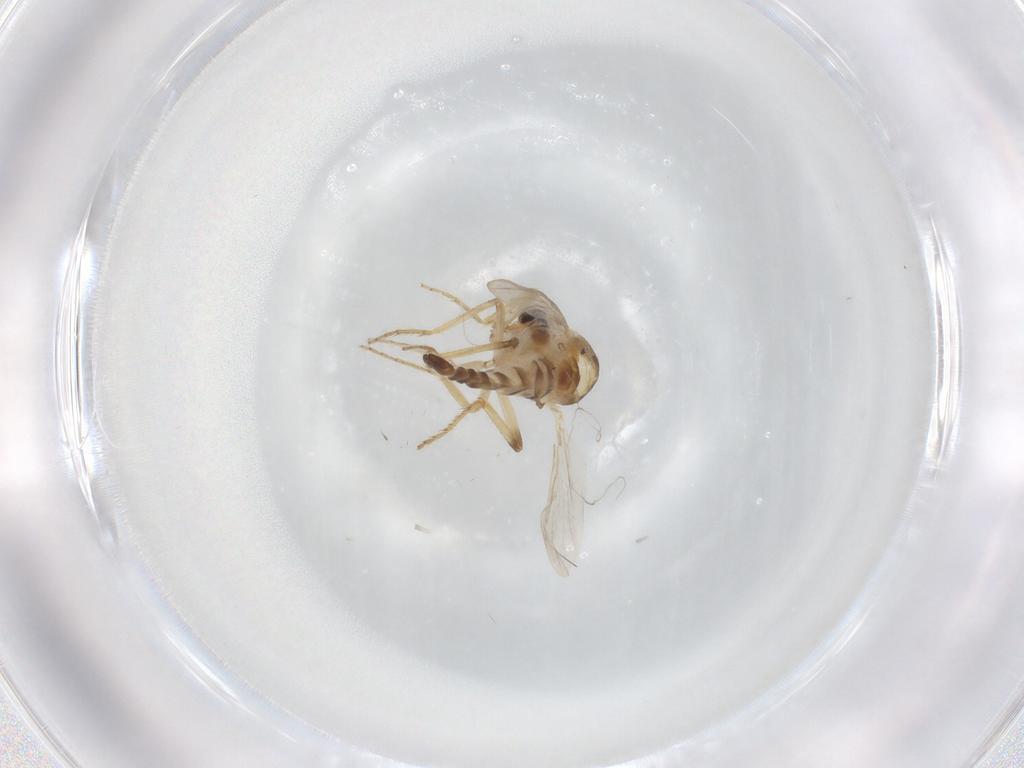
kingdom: Animalia
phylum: Arthropoda
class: Insecta
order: Diptera
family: Ceratopogonidae
